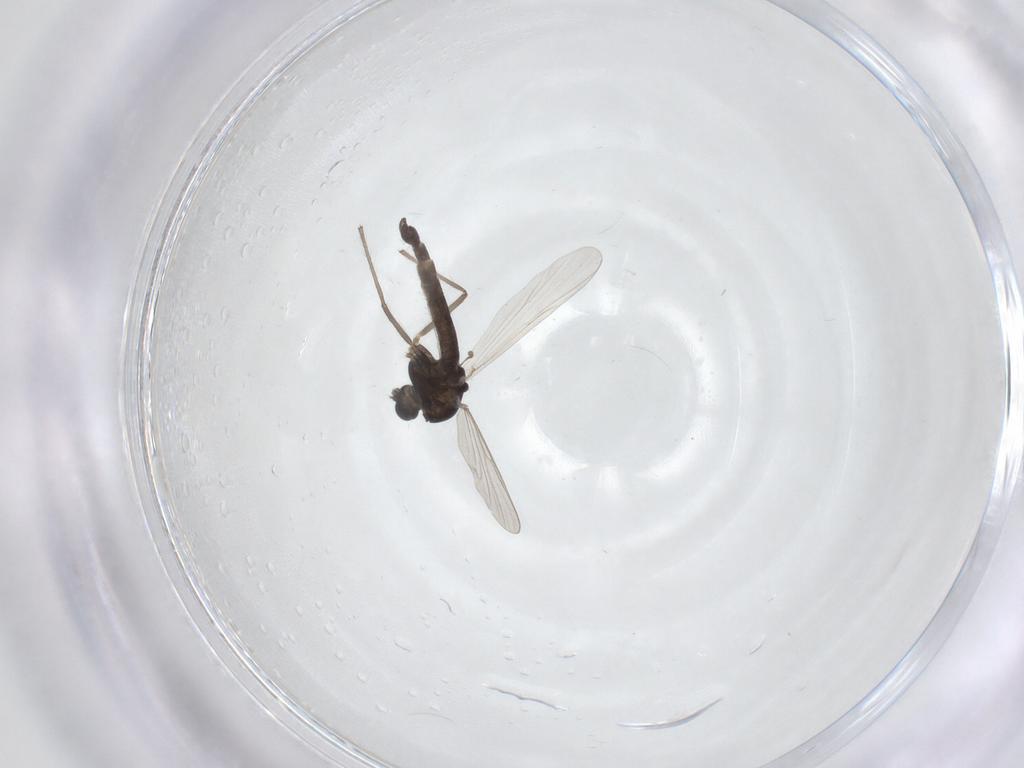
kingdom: Animalia
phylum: Arthropoda
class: Insecta
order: Diptera
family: Chironomidae
